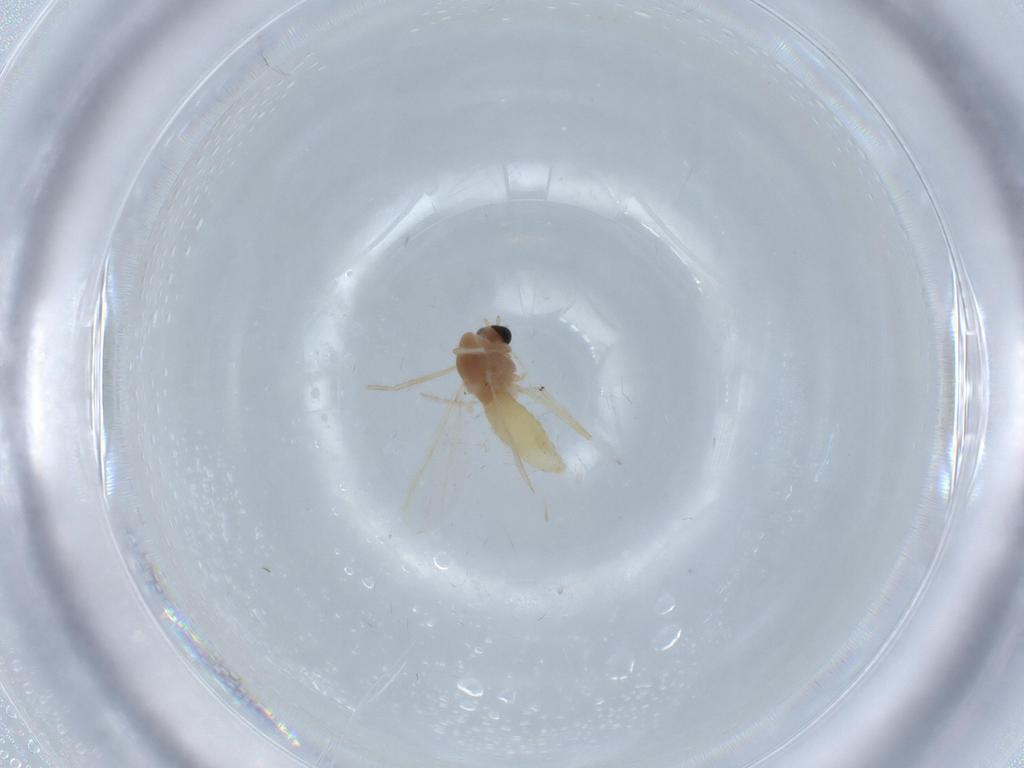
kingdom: Animalia
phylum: Arthropoda
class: Insecta
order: Diptera
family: Chironomidae
